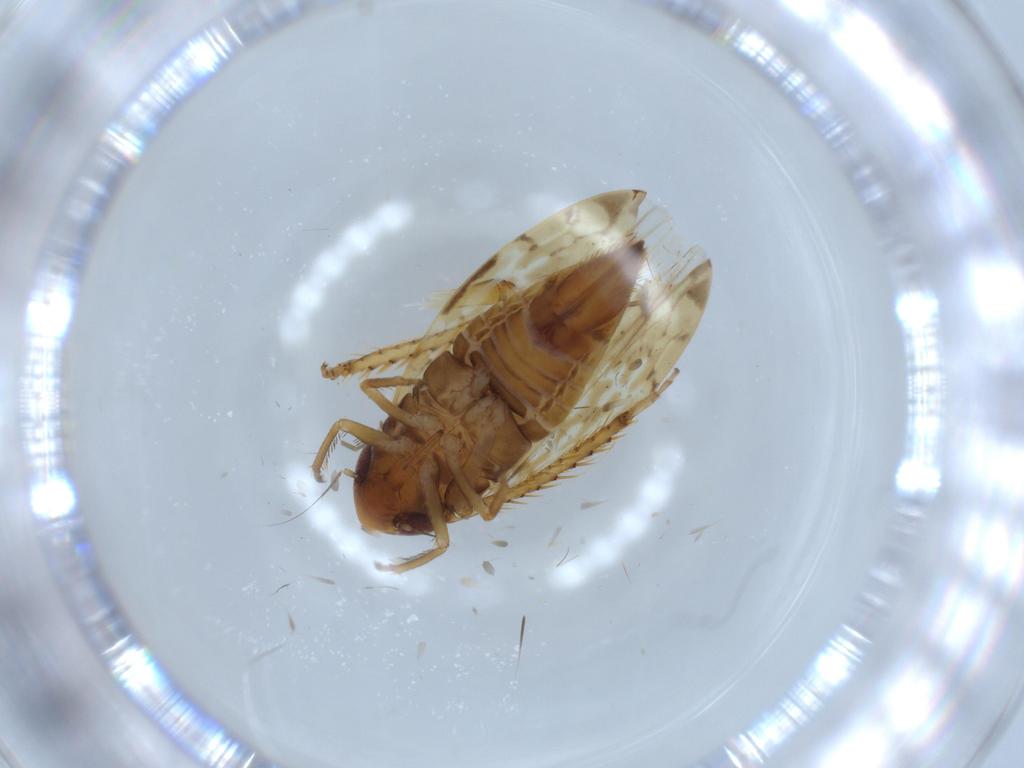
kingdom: Animalia
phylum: Arthropoda
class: Insecta
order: Hemiptera
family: Cicadellidae
